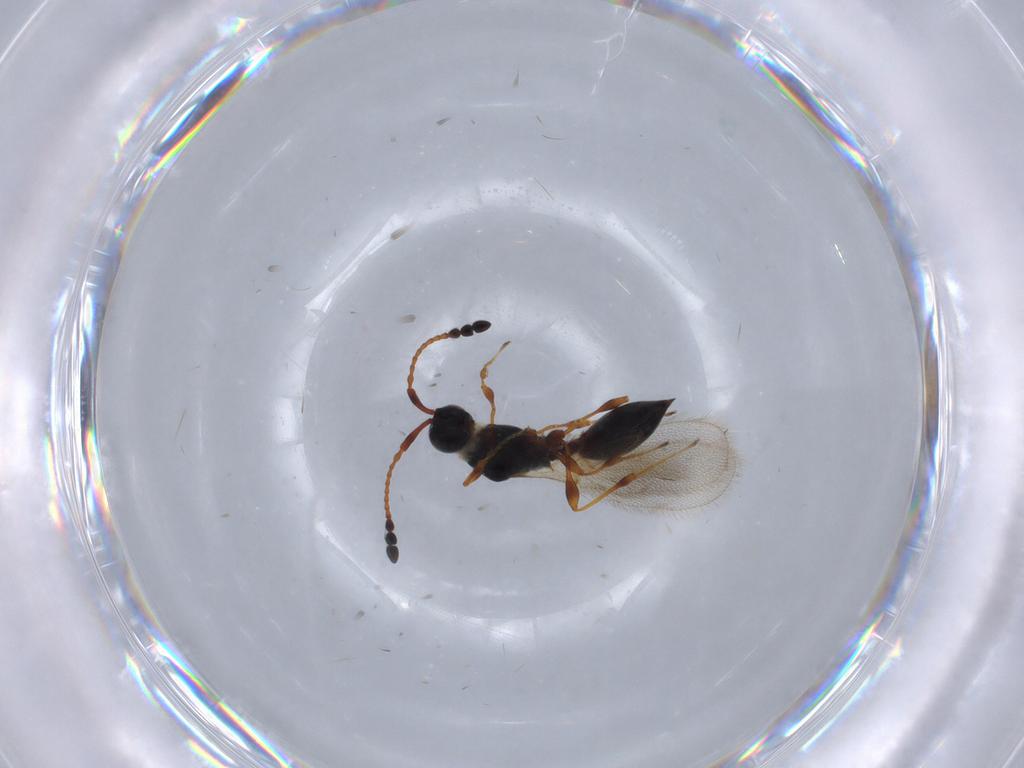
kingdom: Animalia
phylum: Arthropoda
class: Insecta
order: Hymenoptera
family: Diapriidae
